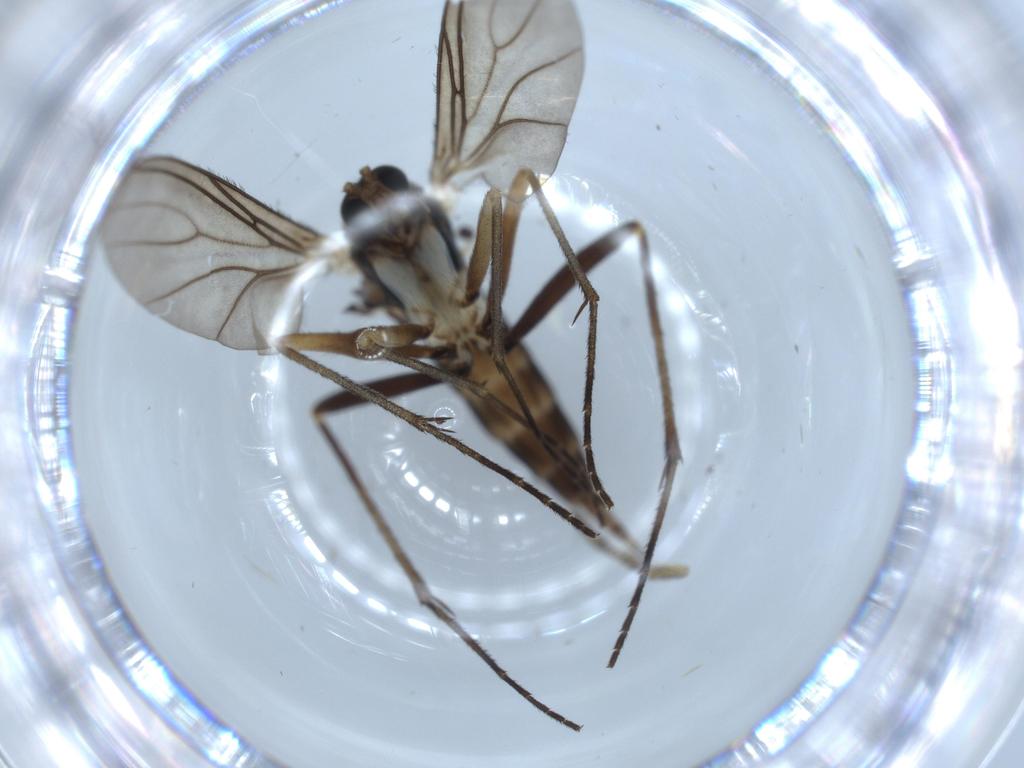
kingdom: Animalia
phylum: Arthropoda
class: Insecta
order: Diptera
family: Sciaridae
